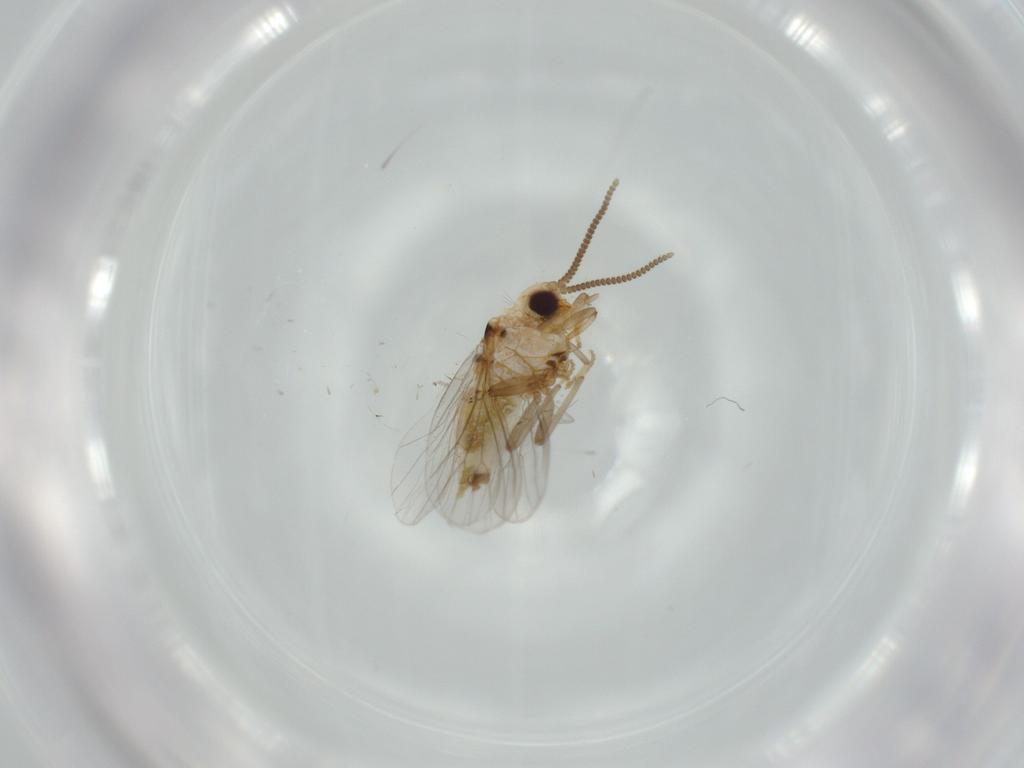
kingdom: Animalia
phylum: Arthropoda
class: Insecta
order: Neuroptera
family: Coniopterygidae
